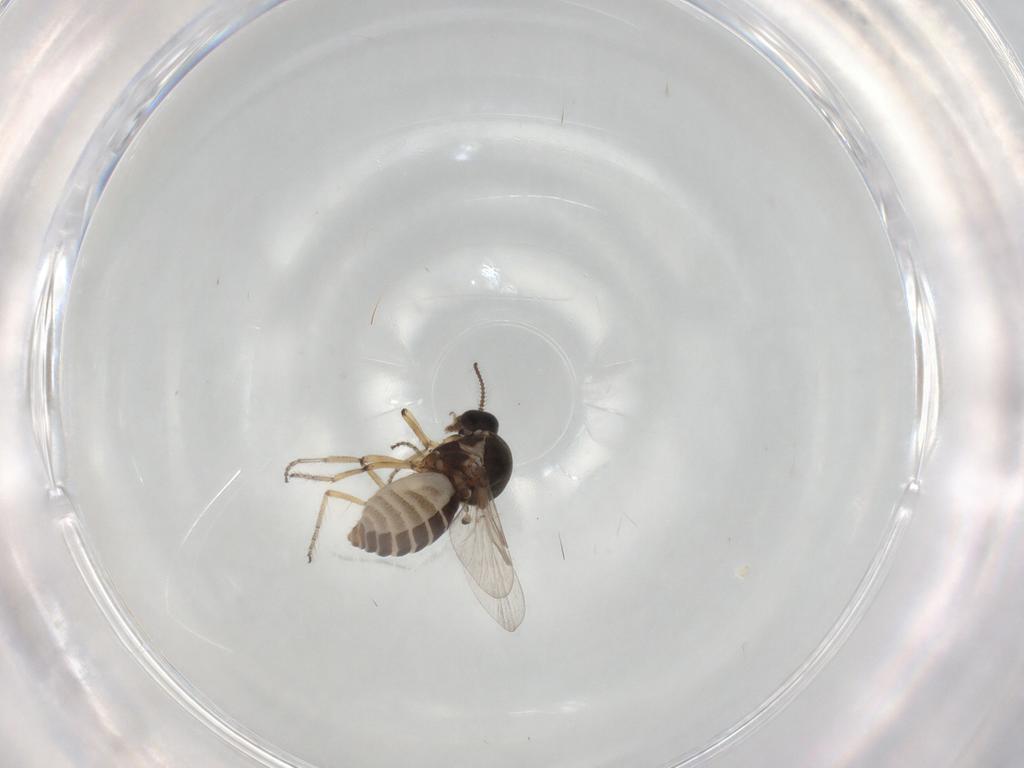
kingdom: Animalia
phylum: Arthropoda
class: Insecta
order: Diptera
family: Ceratopogonidae
